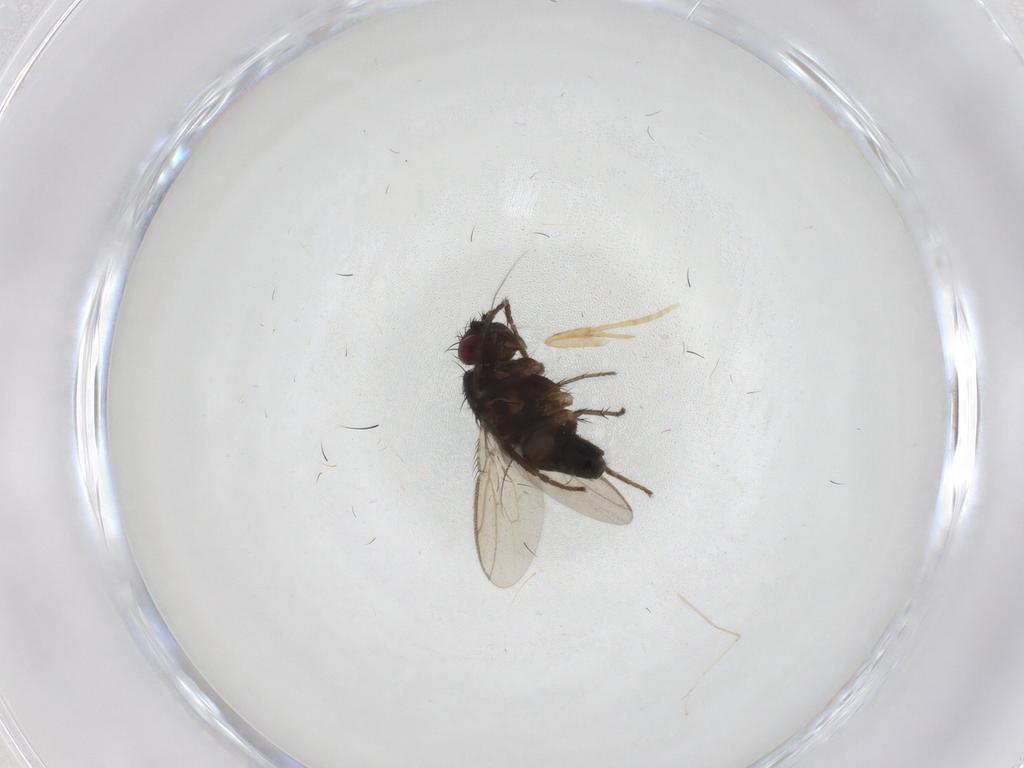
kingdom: Animalia
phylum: Arthropoda
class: Insecta
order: Diptera
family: Sphaeroceridae
